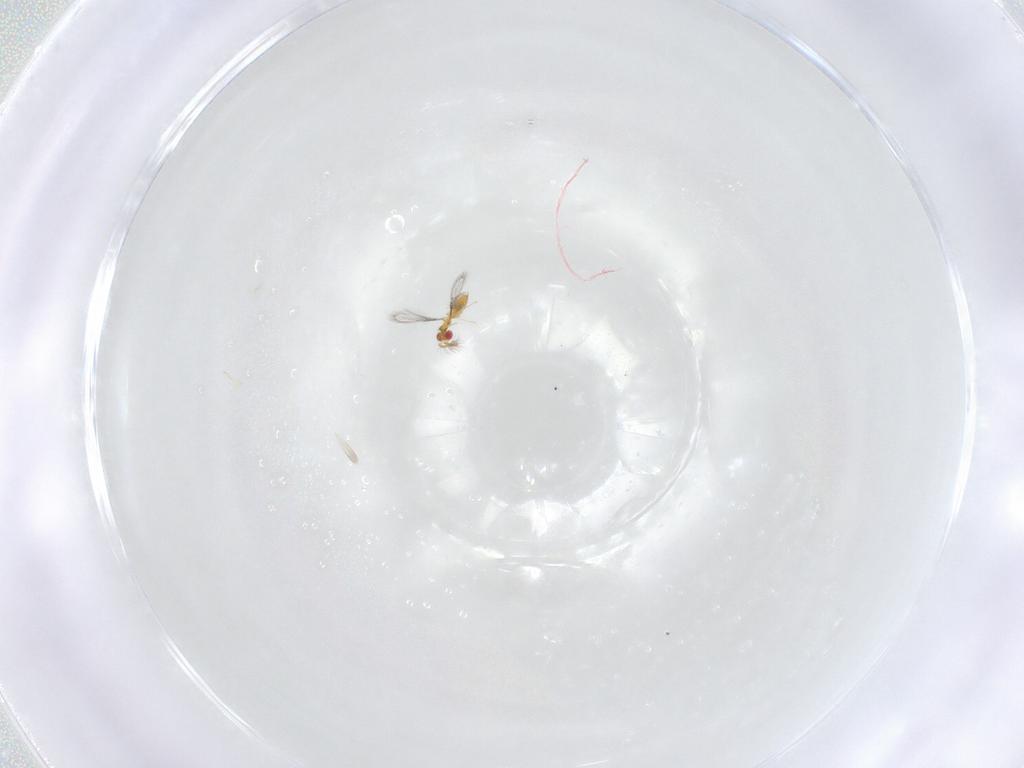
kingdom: Animalia
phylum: Arthropoda
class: Insecta
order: Hymenoptera
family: Trichogrammatidae
